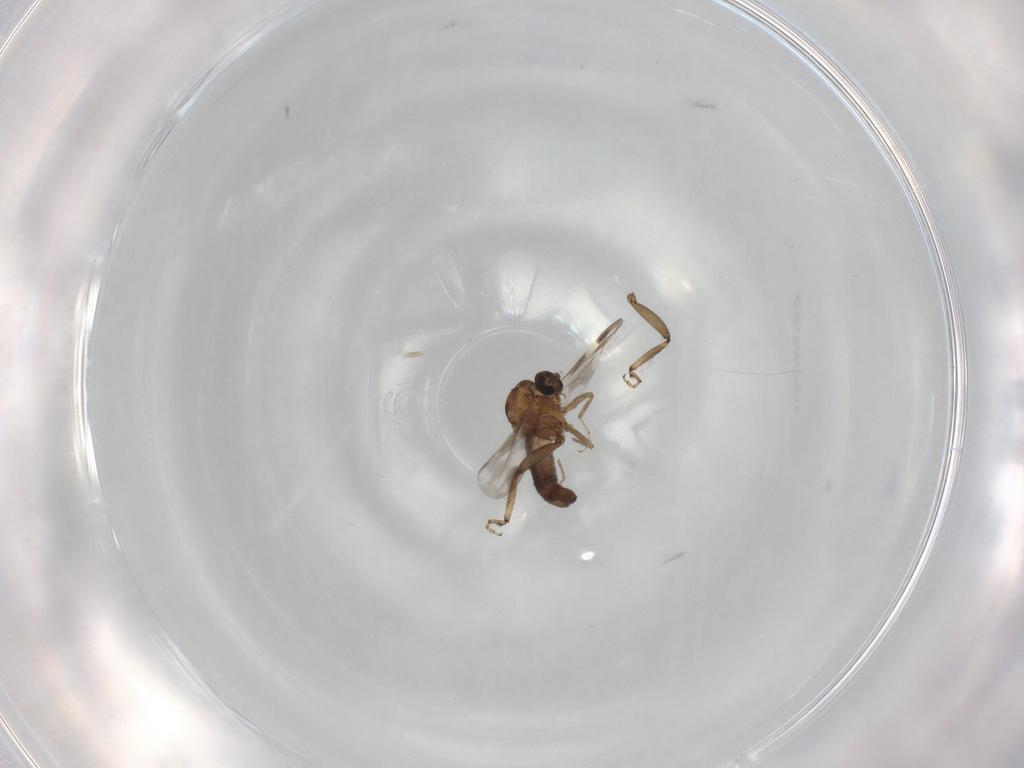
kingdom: Animalia
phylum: Arthropoda
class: Insecta
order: Diptera
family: Ceratopogonidae
